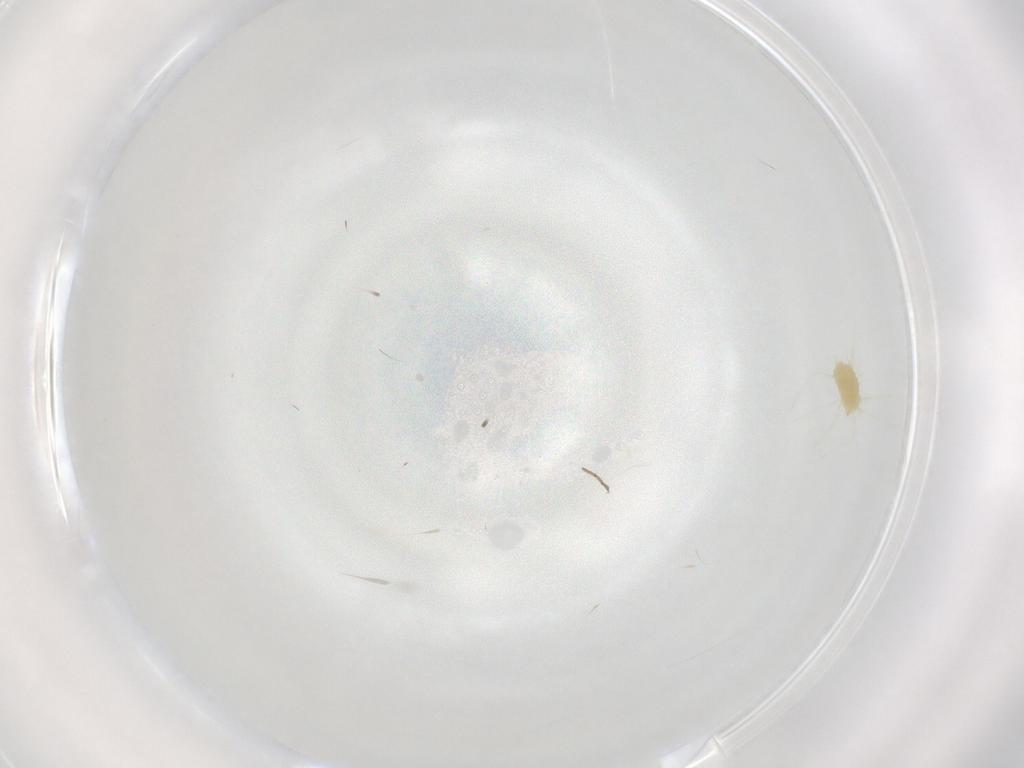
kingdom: Animalia
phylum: Arthropoda
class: Arachnida
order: Trombidiformes
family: Tetranychidae
